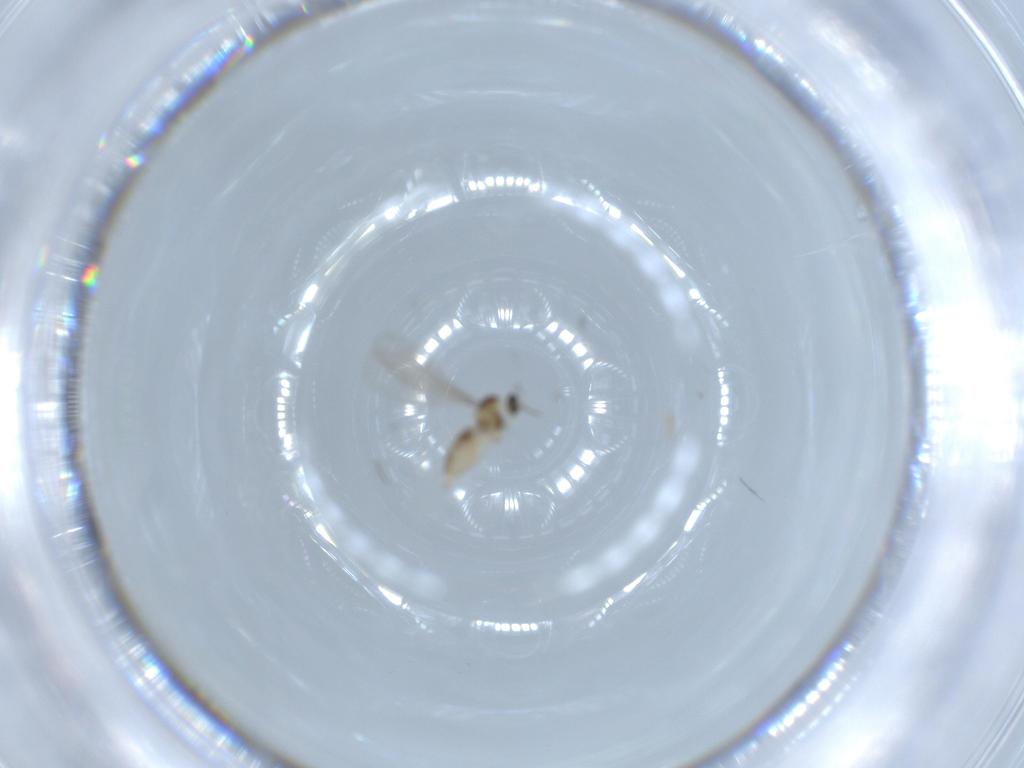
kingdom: Animalia
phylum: Arthropoda
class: Insecta
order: Diptera
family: Cecidomyiidae
